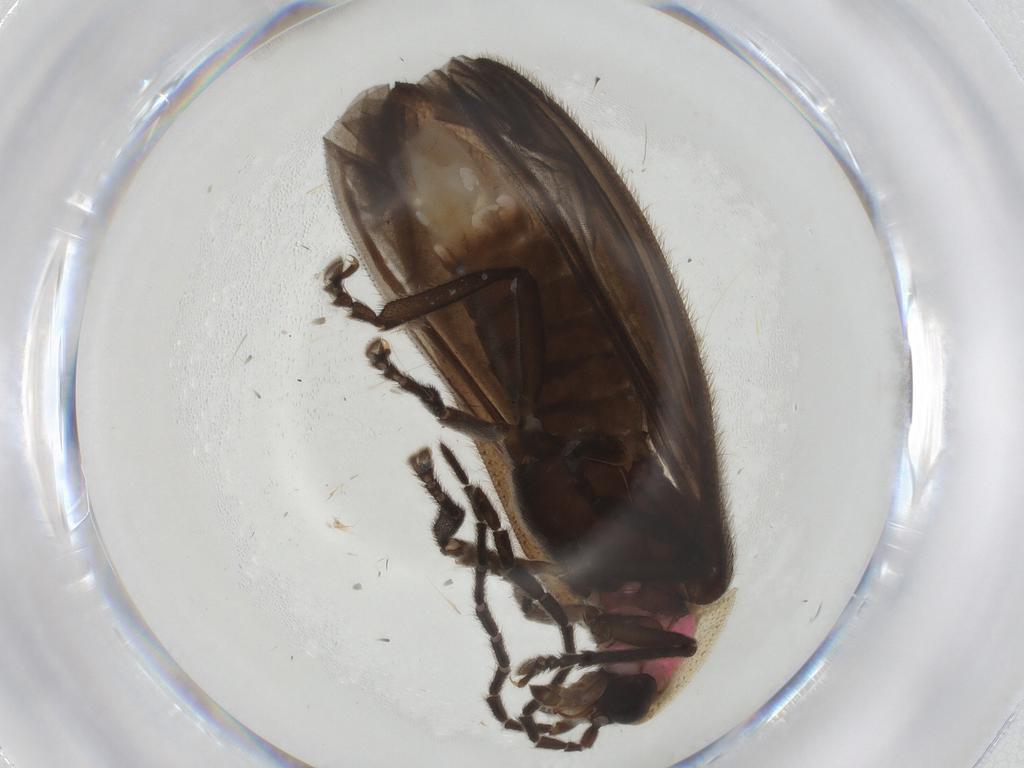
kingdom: Animalia
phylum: Arthropoda
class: Insecta
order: Coleoptera
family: Lampyridae
